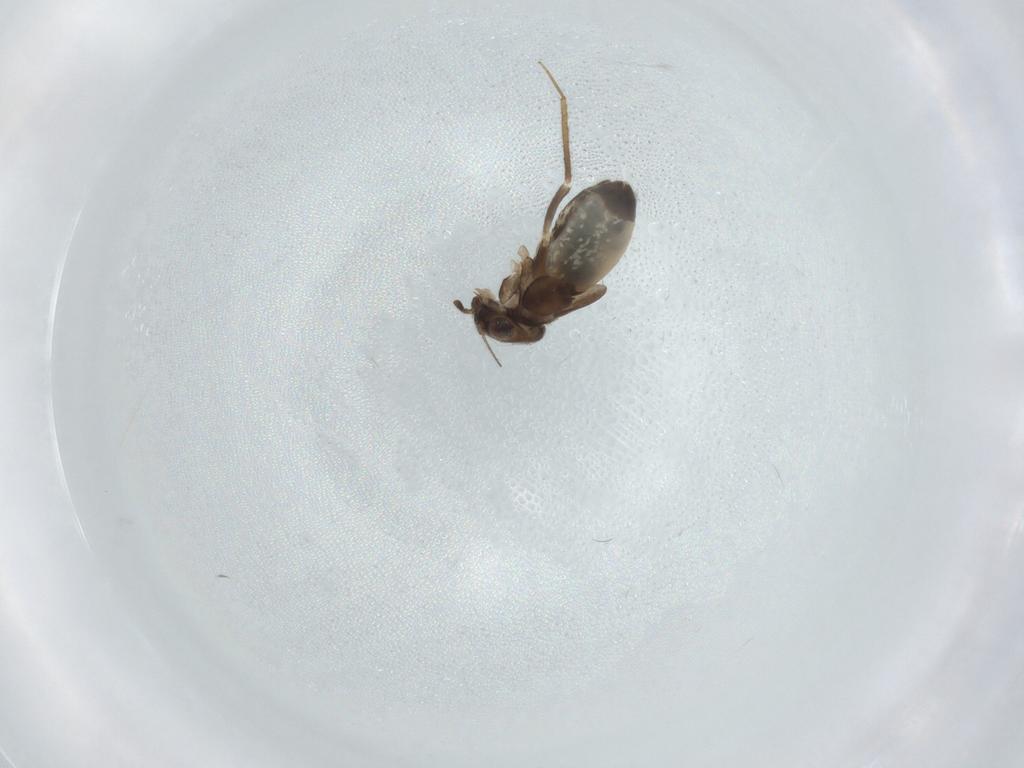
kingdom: Animalia
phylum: Arthropoda
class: Insecta
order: Psocodea
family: Lepidopsocidae
